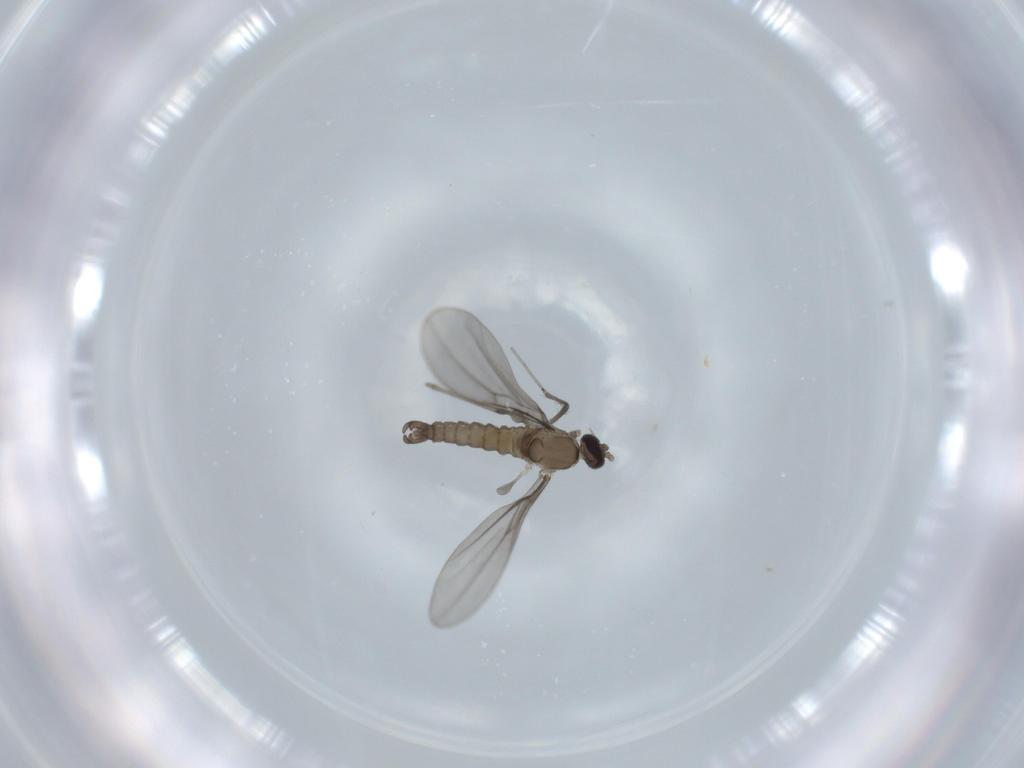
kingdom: Animalia
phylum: Arthropoda
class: Insecta
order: Diptera
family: Cecidomyiidae
